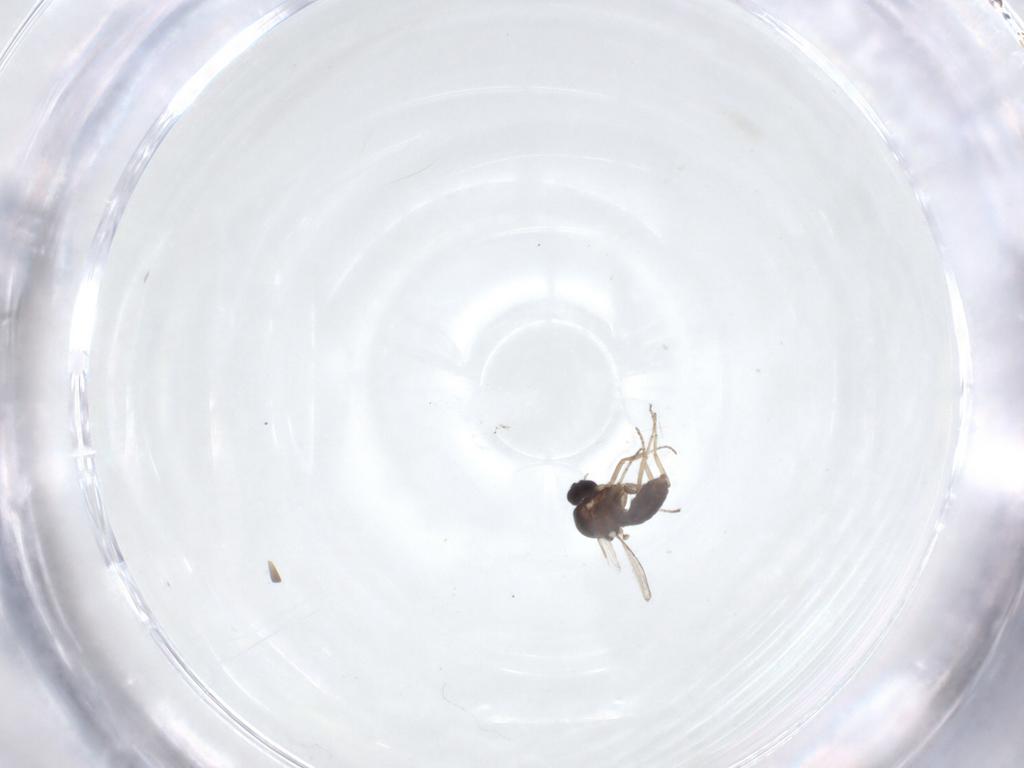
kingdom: Animalia
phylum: Arthropoda
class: Insecta
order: Diptera
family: Ceratopogonidae
